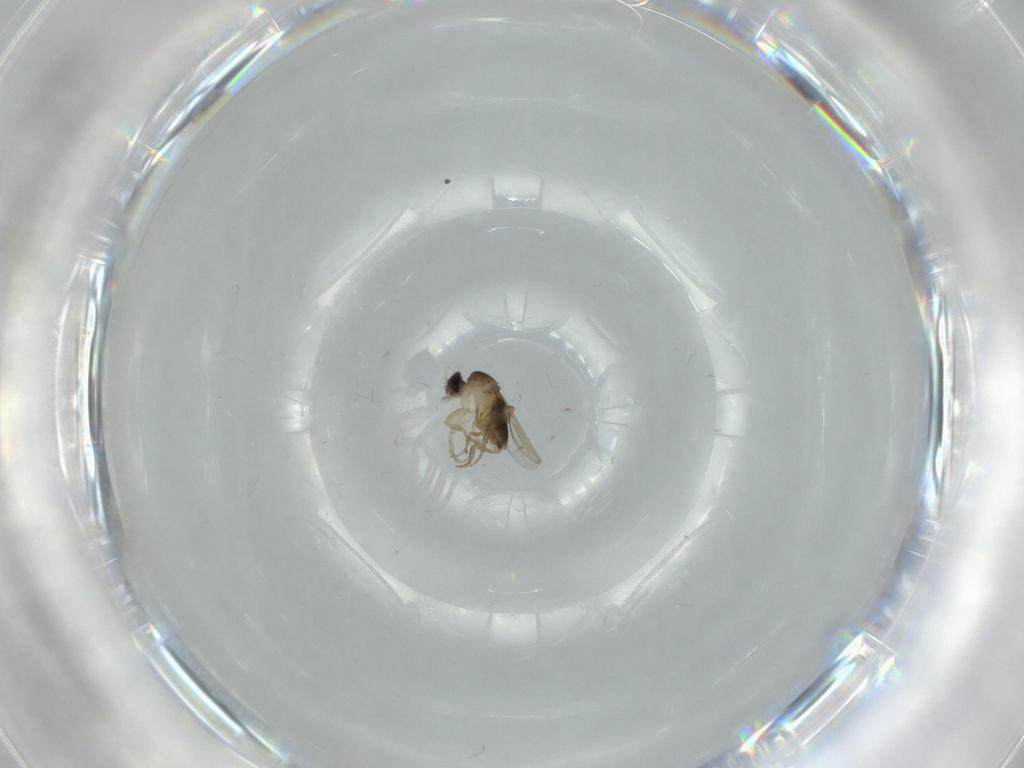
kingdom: Animalia
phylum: Arthropoda
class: Insecta
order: Diptera
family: Phoridae
